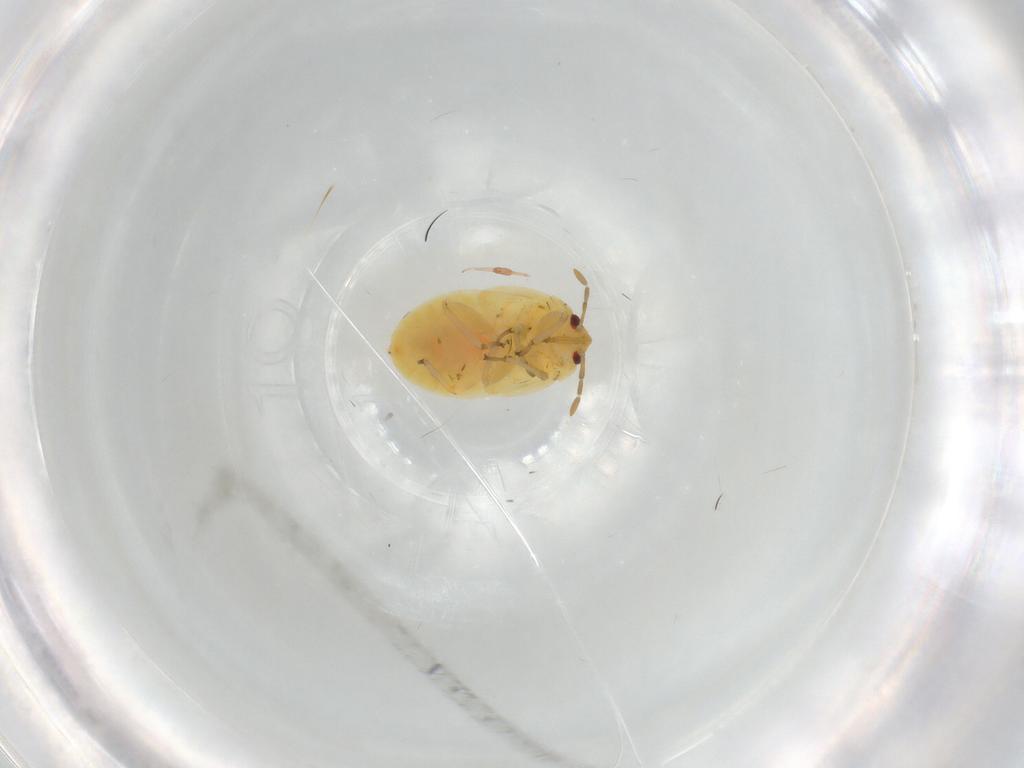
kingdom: Animalia
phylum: Arthropoda
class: Insecta
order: Hemiptera
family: Anthocoridae
